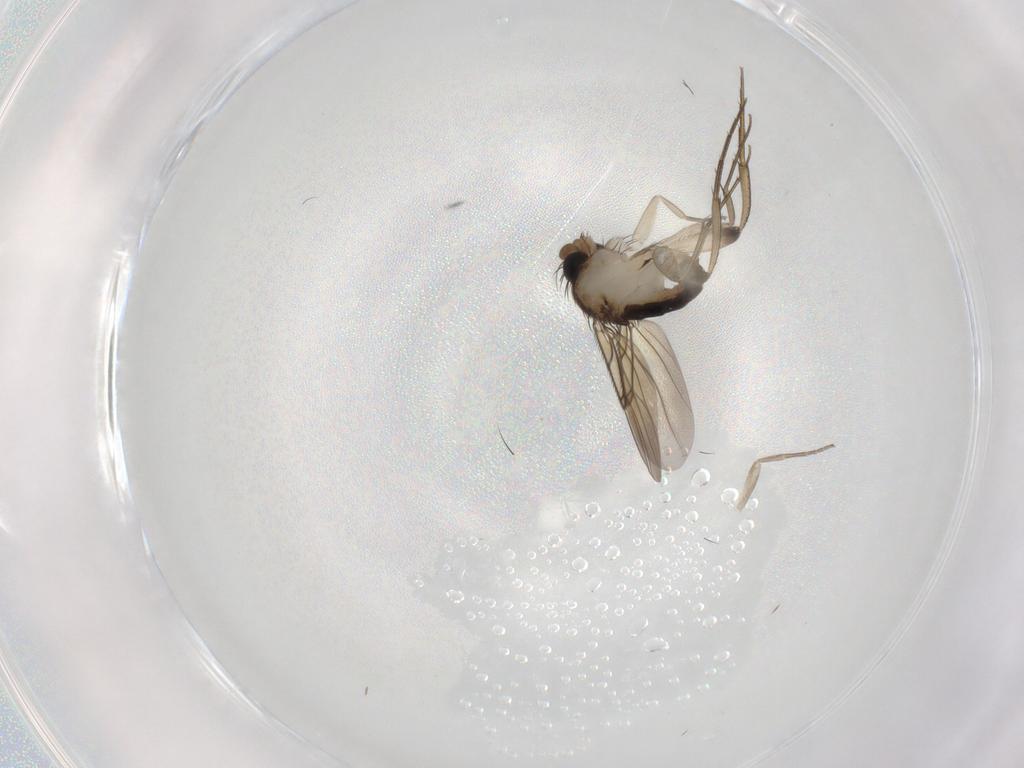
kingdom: Animalia
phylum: Arthropoda
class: Insecta
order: Diptera
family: Phoridae
